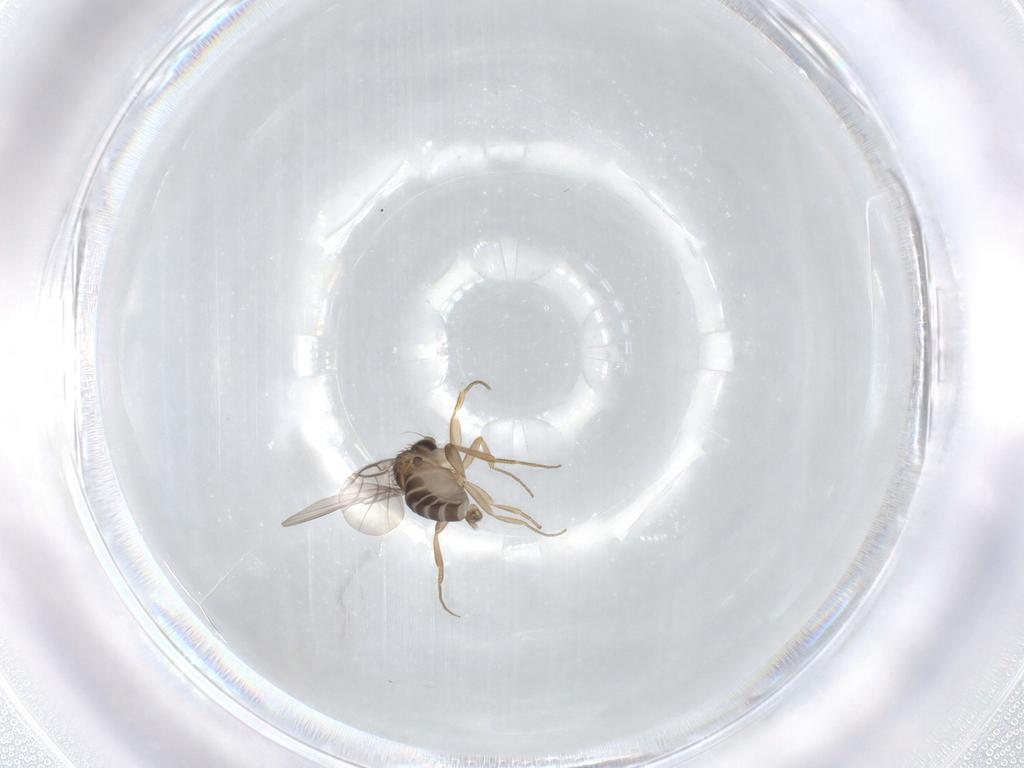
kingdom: Animalia
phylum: Arthropoda
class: Insecta
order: Diptera
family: Phoridae
